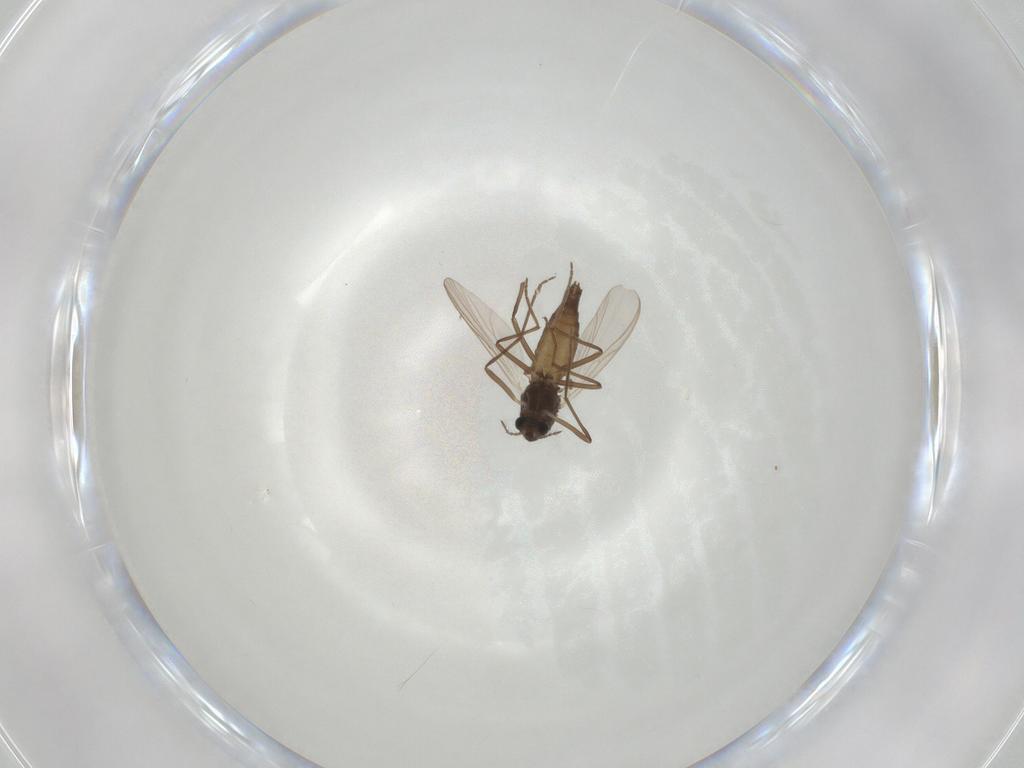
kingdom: Animalia
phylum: Arthropoda
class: Insecta
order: Diptera
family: Chironomidae
